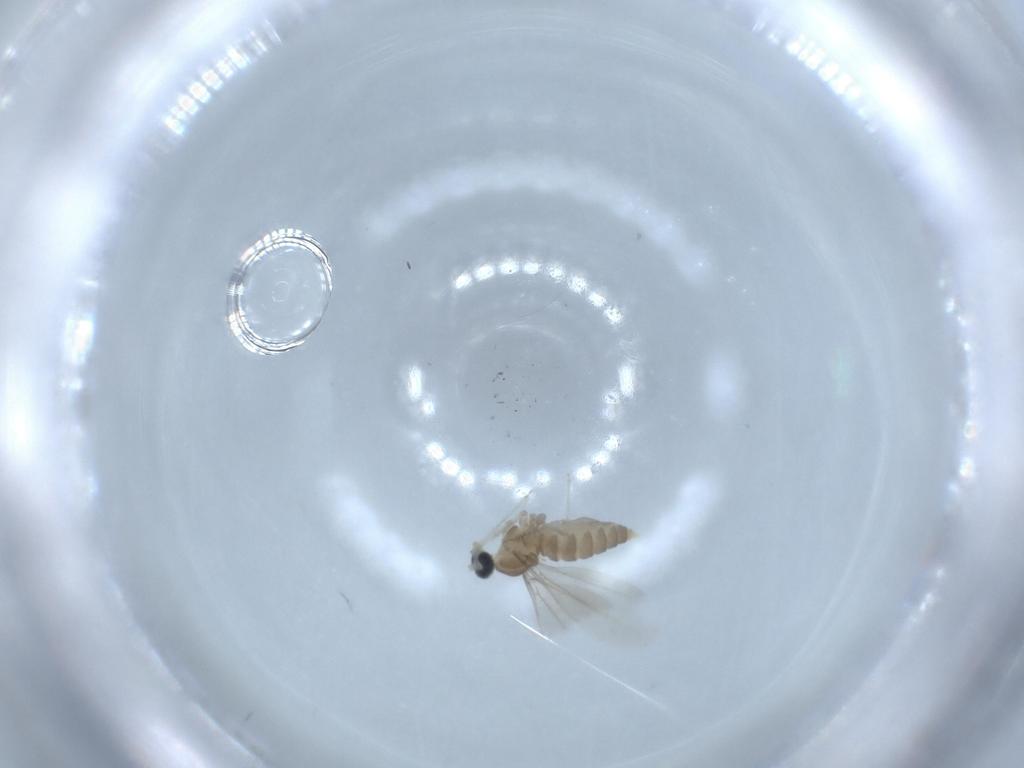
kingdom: Animalia
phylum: Arthropoda
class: Insecta
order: Diptera
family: Cecidomyiidae
